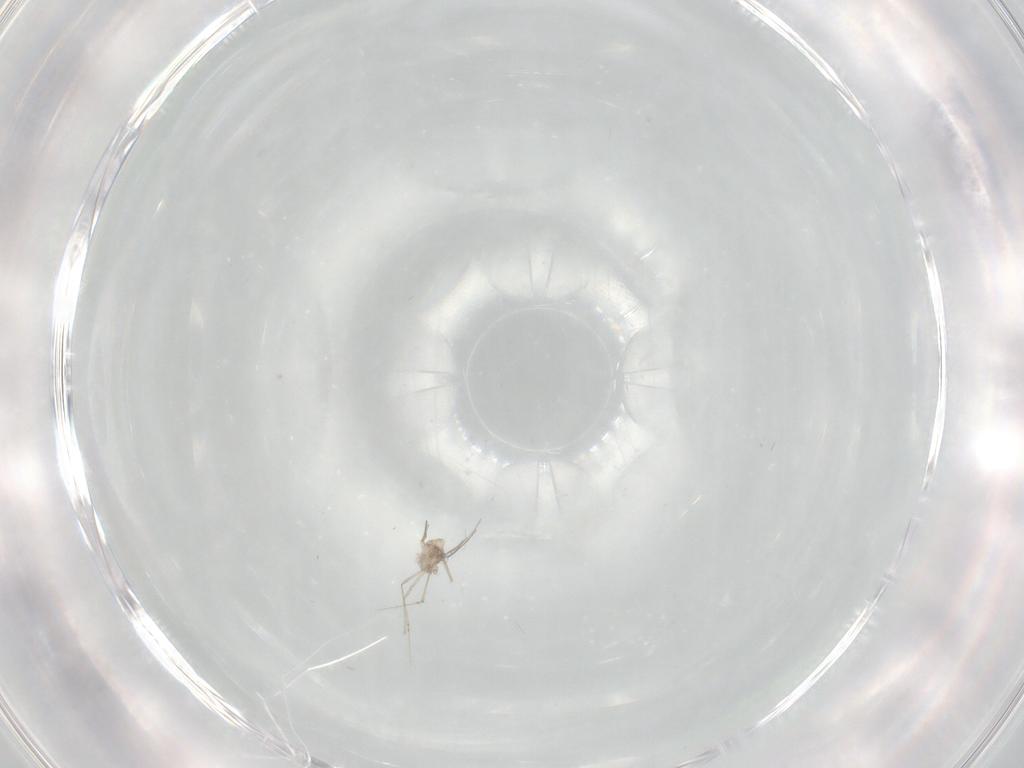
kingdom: Animalia
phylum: Arthropoda
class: Insecta
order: Diptera
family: Cecidomyiidae
